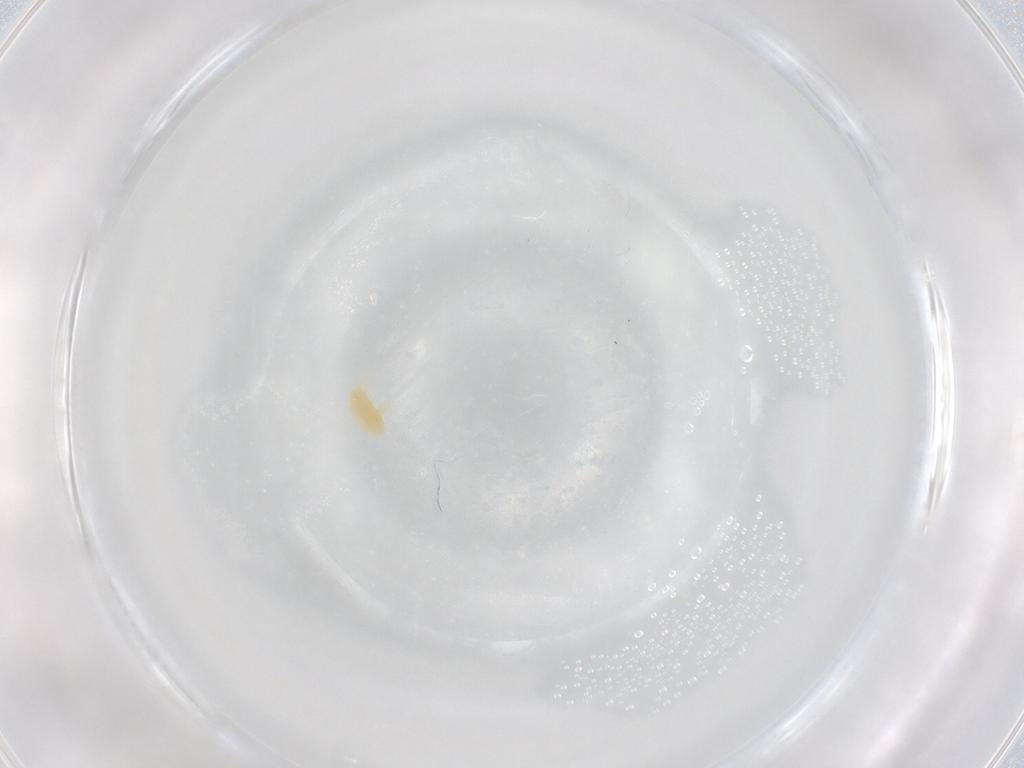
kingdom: Animalia
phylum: Arthropoda
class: Arachnida
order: Trombidiformes
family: Eupodidae
